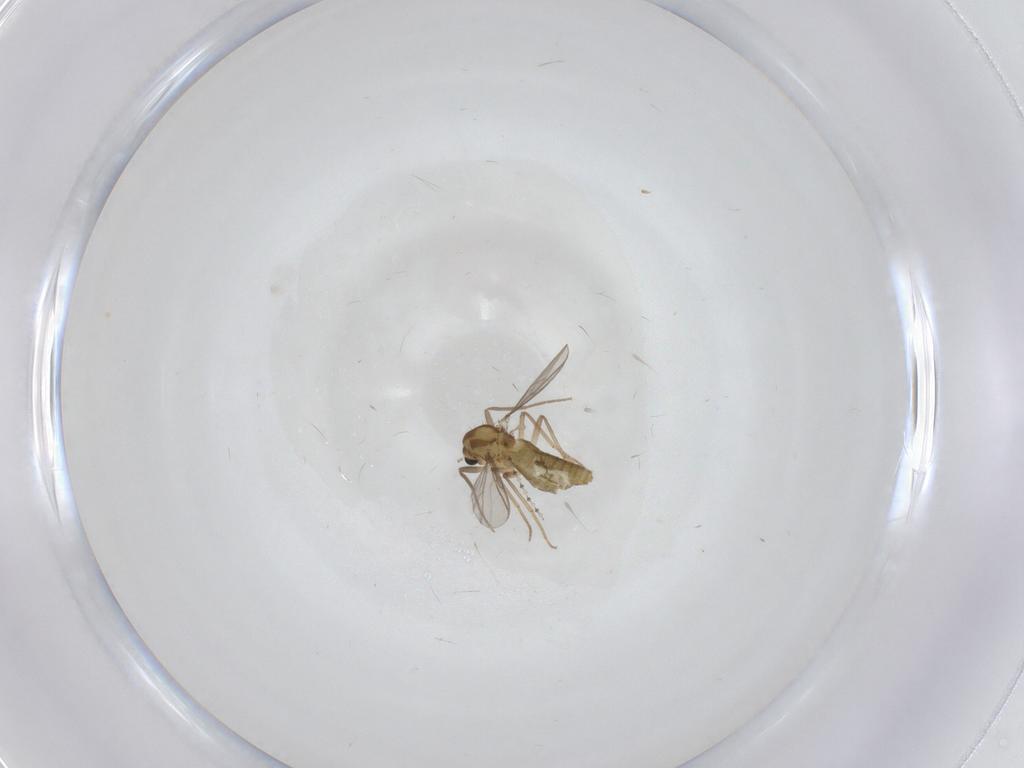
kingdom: Animalia
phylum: Arthropoda
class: Insecta
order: Diptera
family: Chironomidae
